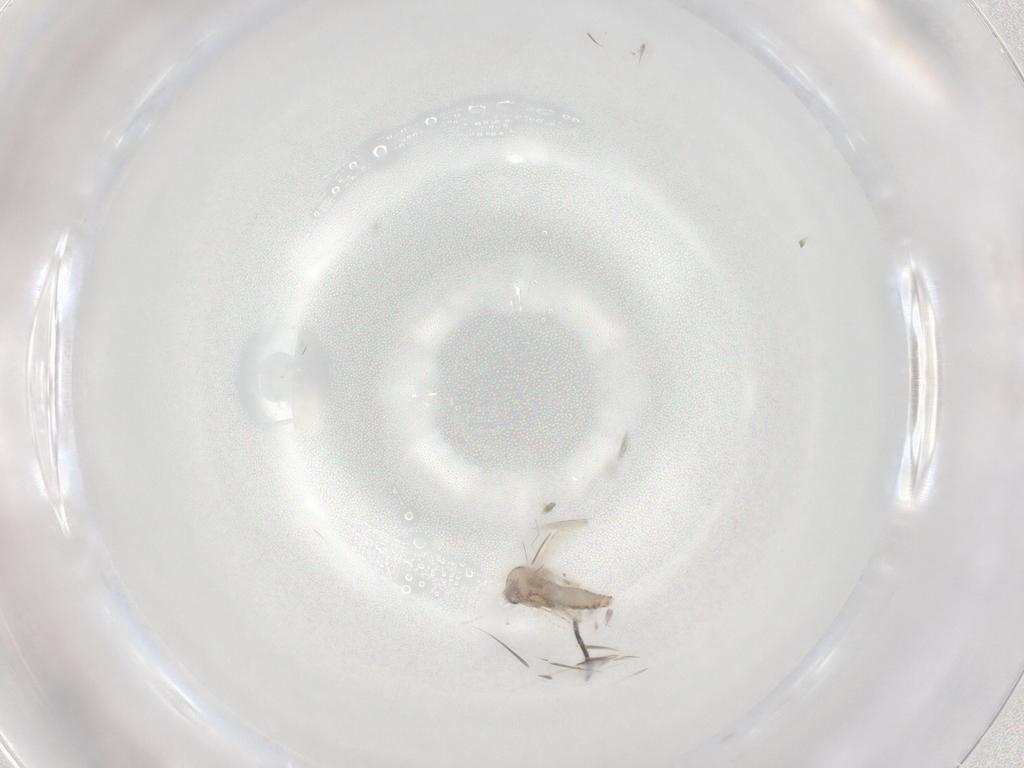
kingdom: Animalia
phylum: Arthropoda
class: Insecta
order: Diptera
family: Ceratopogonidae
